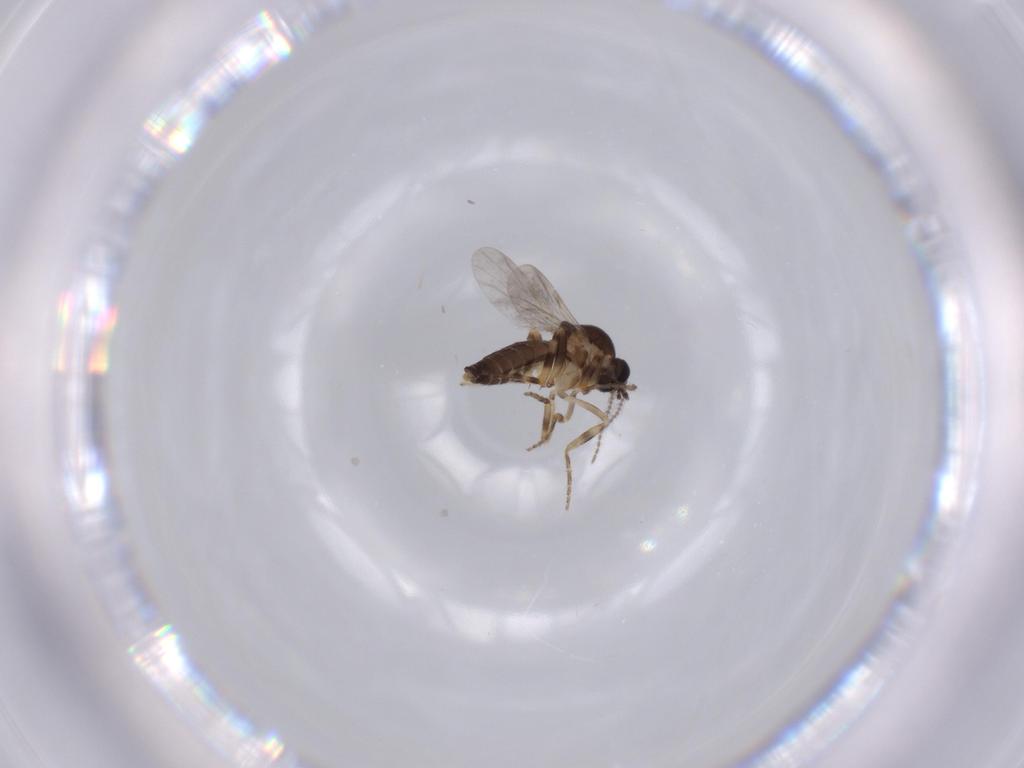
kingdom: Animalia
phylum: Arthropoda
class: Insecta
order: Diptera
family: Ceratopogonidae
